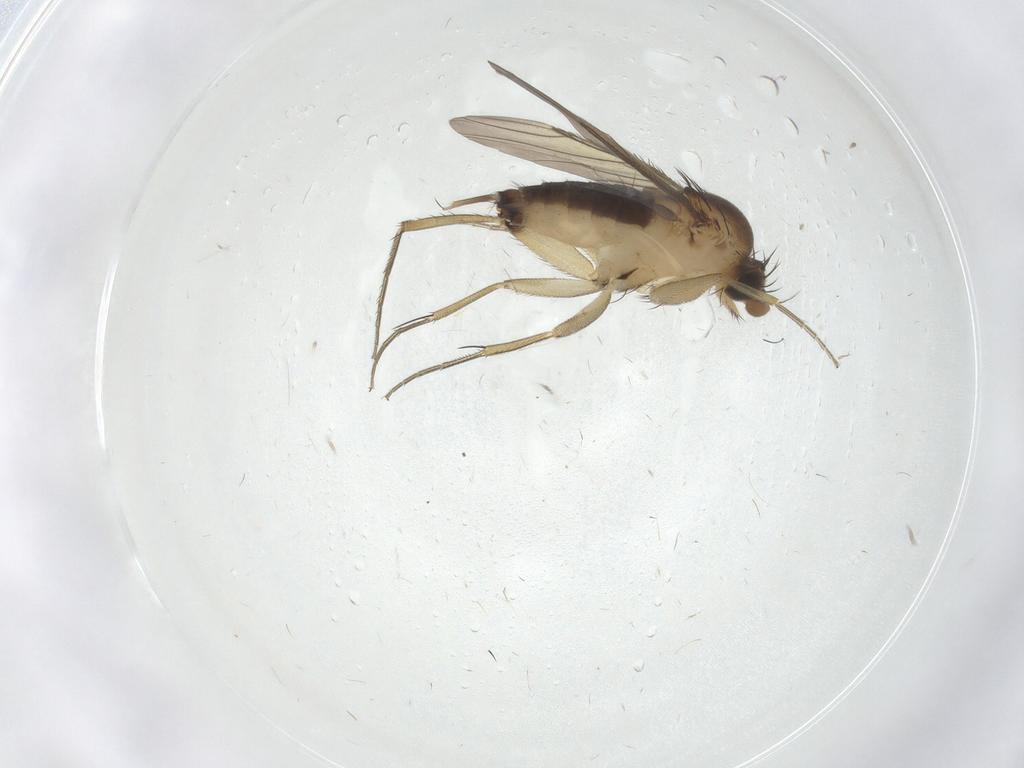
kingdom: Animalia
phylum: Arthropoda
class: Insecta
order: Diptera
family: Phoridae
